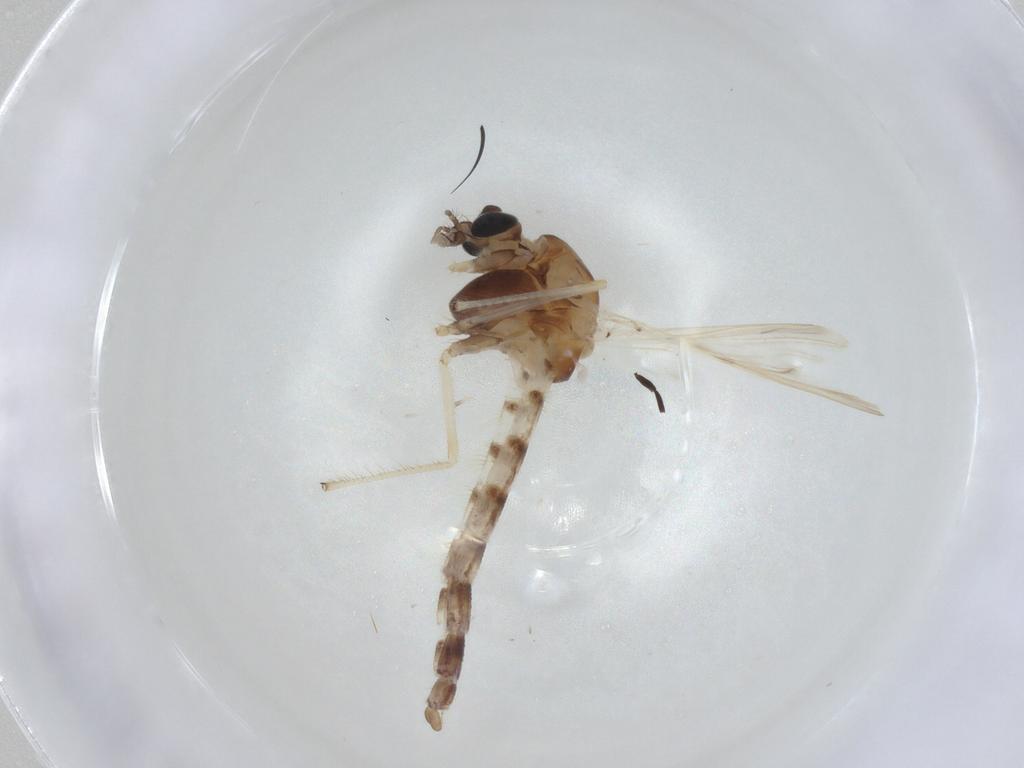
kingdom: Animalia
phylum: Arthropoda
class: Insecta
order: Diptera
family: Chironomidae
